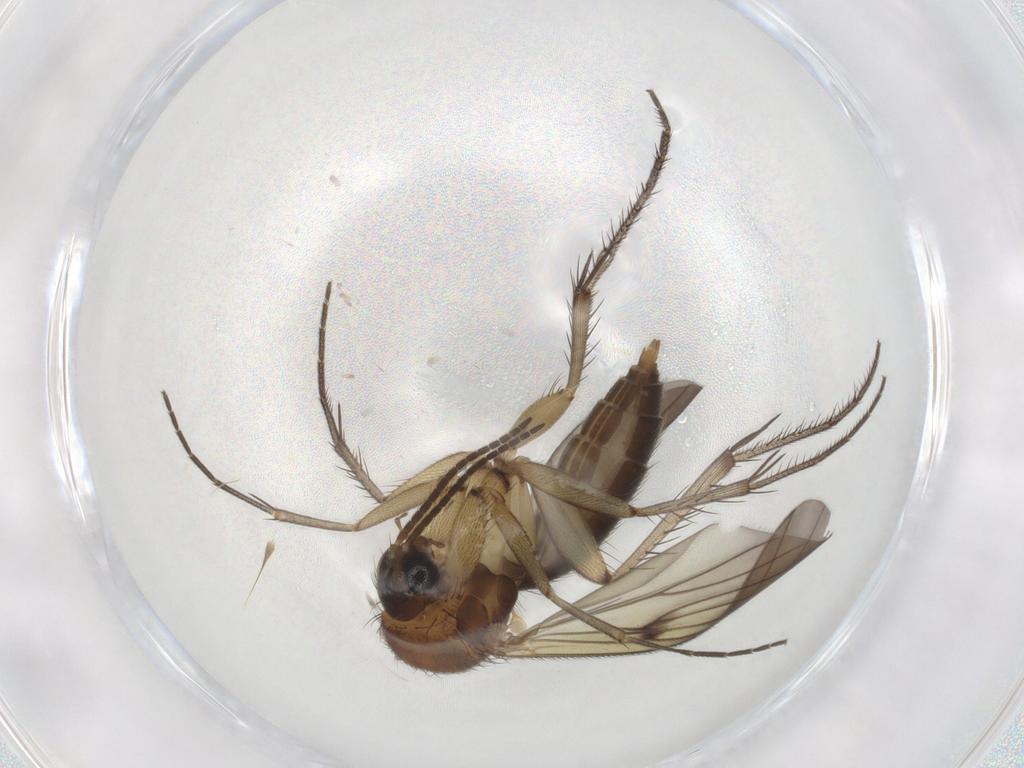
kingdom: Animalia
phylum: Arthropoda
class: Insecta
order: Diptera
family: Mycetophilidae
